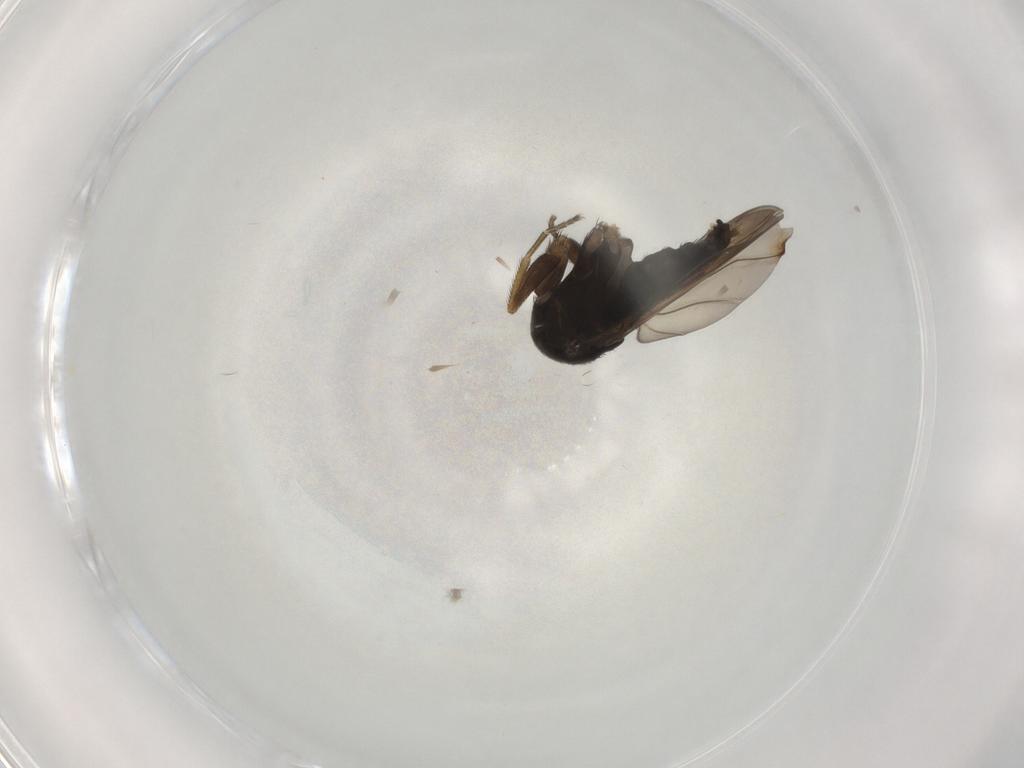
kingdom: Animalia
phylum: Arthropoda
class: Insecta
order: Diptera
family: Phoridae
